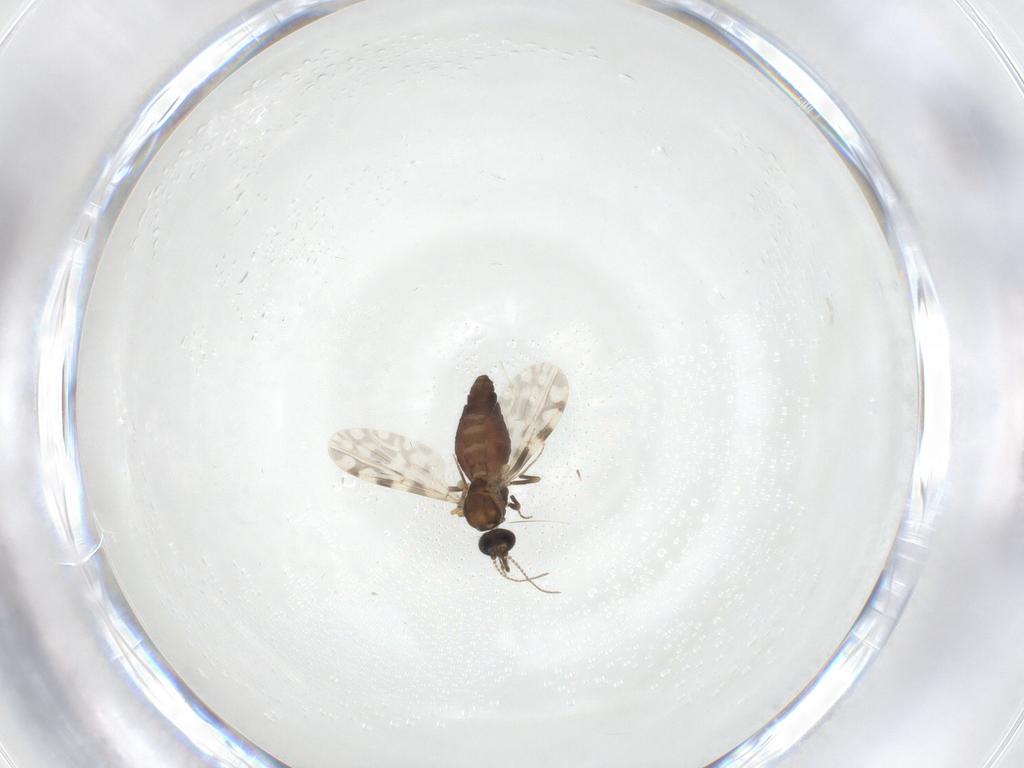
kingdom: Animalia
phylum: Arthropoda
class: Insecta
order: Diptera
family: Ceratopogonidae
